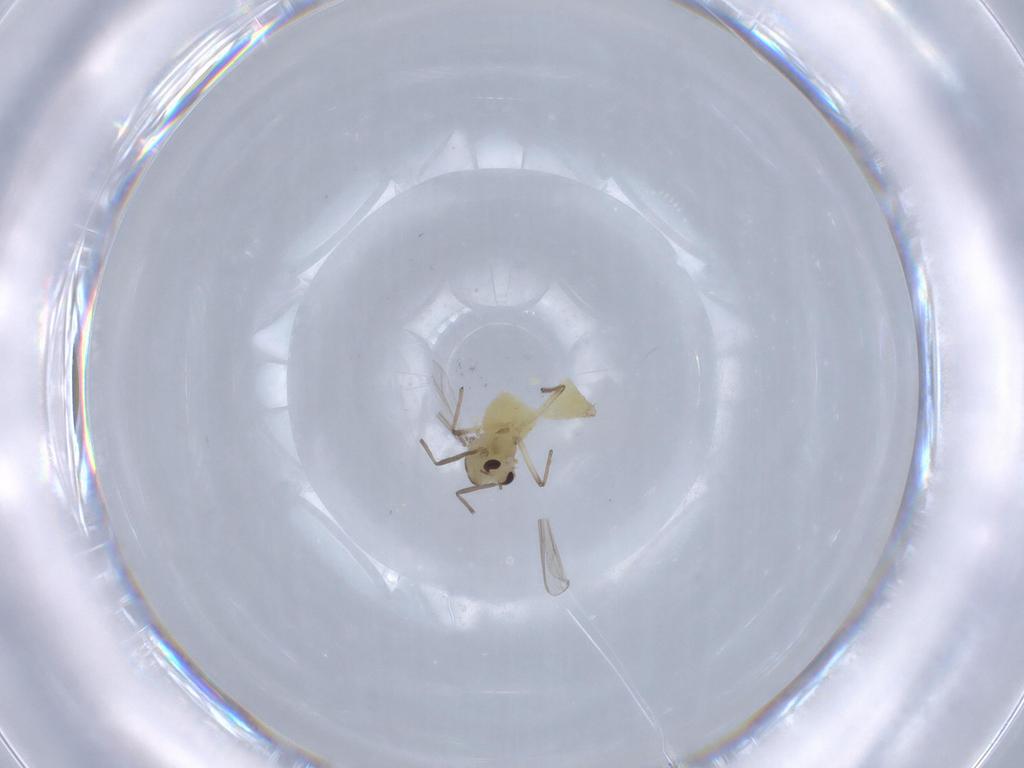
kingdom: Animalia
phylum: Arthropoda
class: Insecta
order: Diptera
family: Chironomidae
